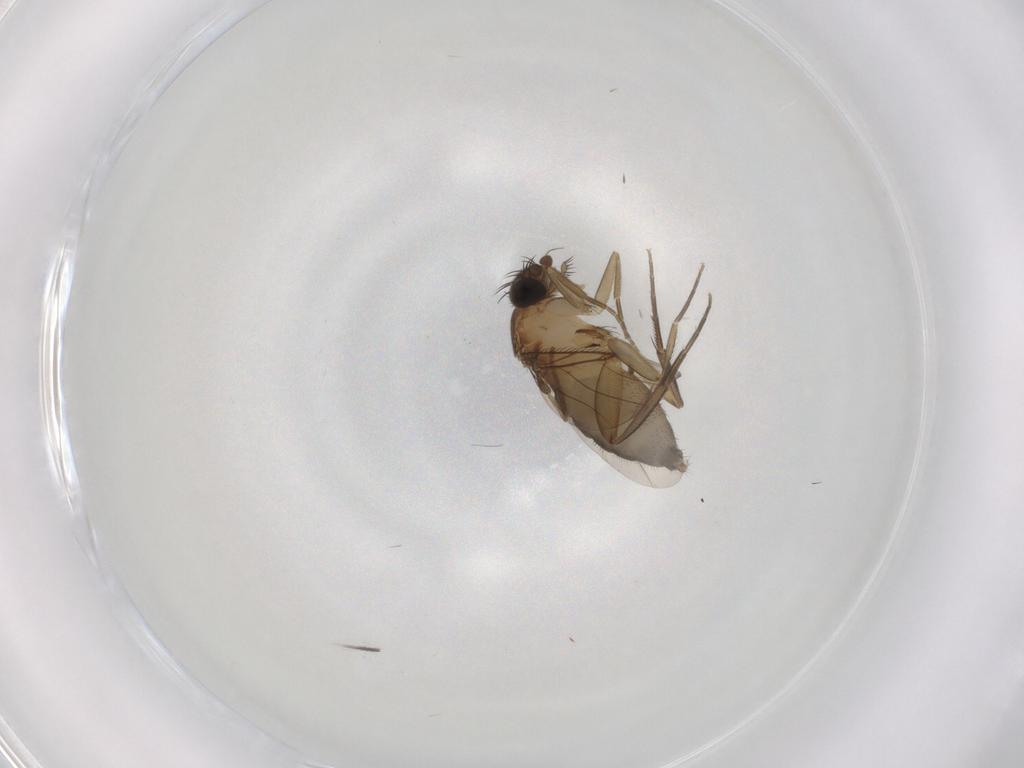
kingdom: Animalia
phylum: Arthropoda
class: Insecta
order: Diptera
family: Phoridae
